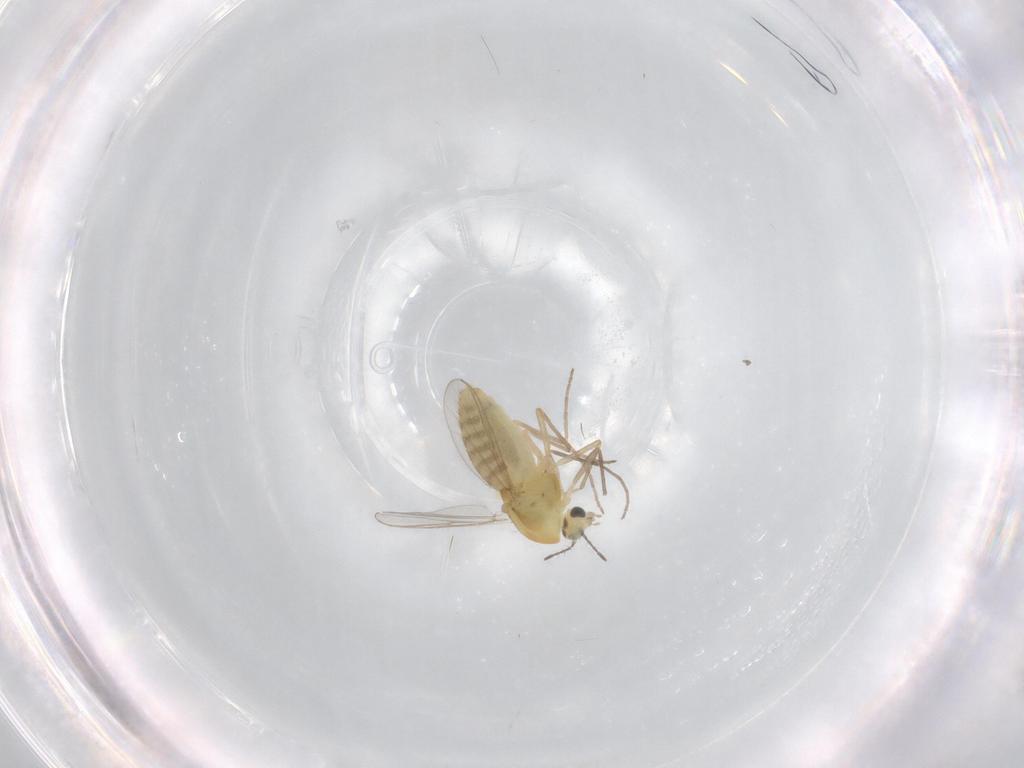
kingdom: Animalia
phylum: Arthropoda
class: Insecta
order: Diptera
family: Chironomidae
